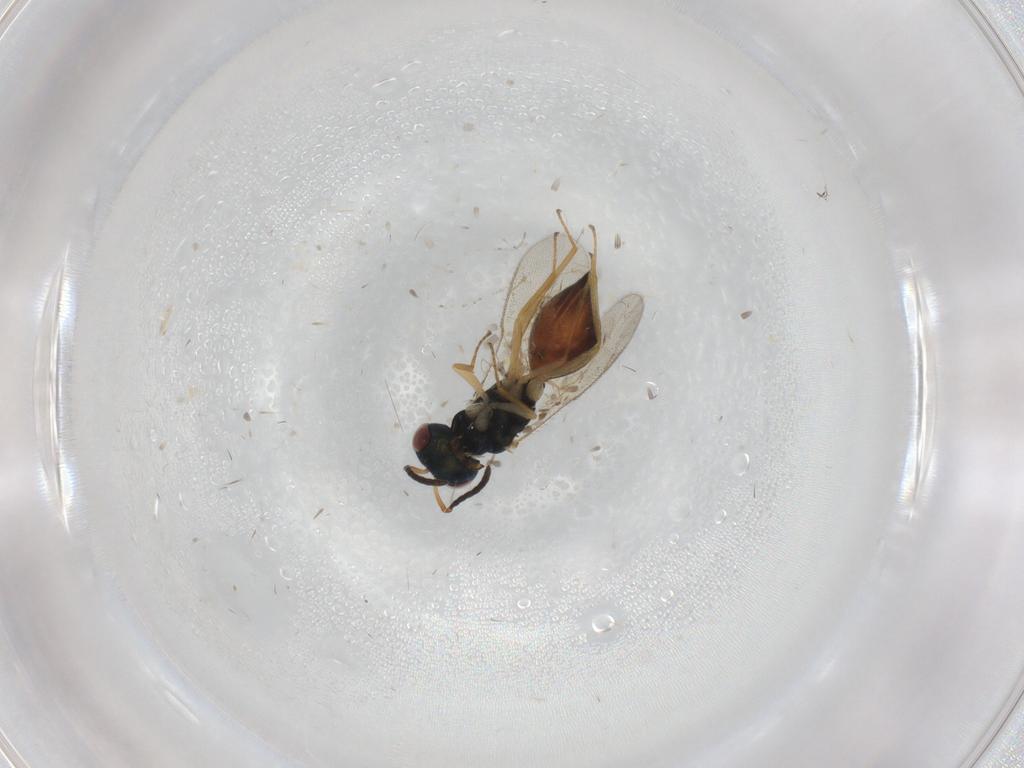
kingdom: Animalia
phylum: Arthropoda
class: Insecta
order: Hymenoptera
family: Pteromalidae
